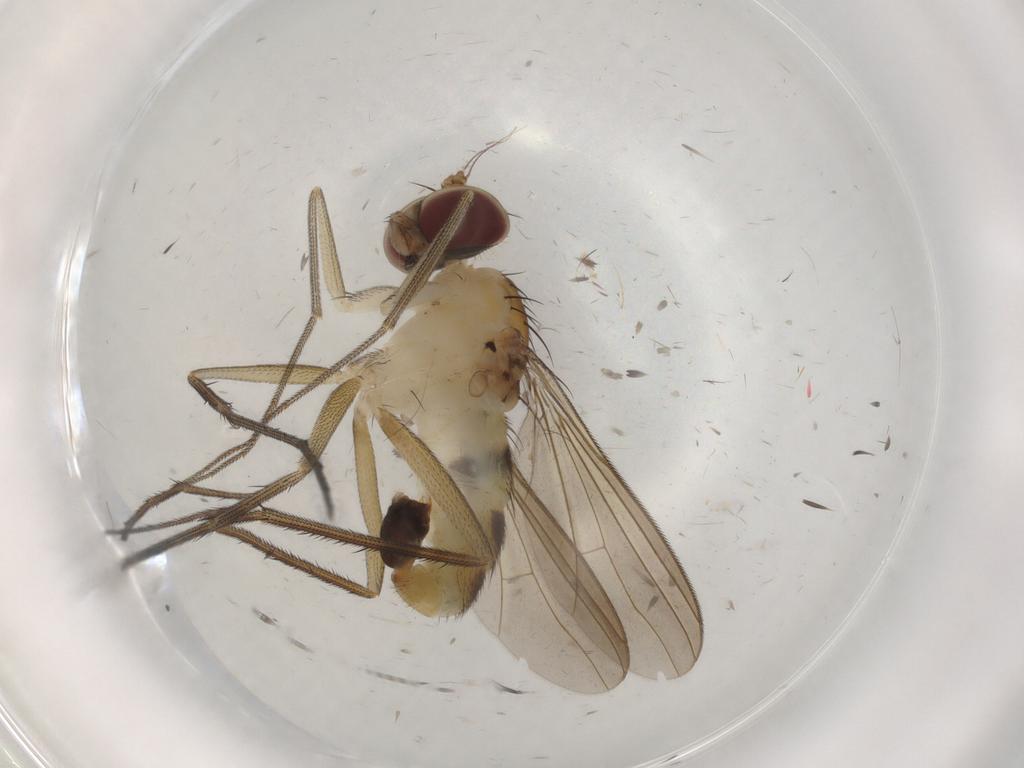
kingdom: Animalia
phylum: Arthropoda
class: Insecta
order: Diptera
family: Dolichopodidae
